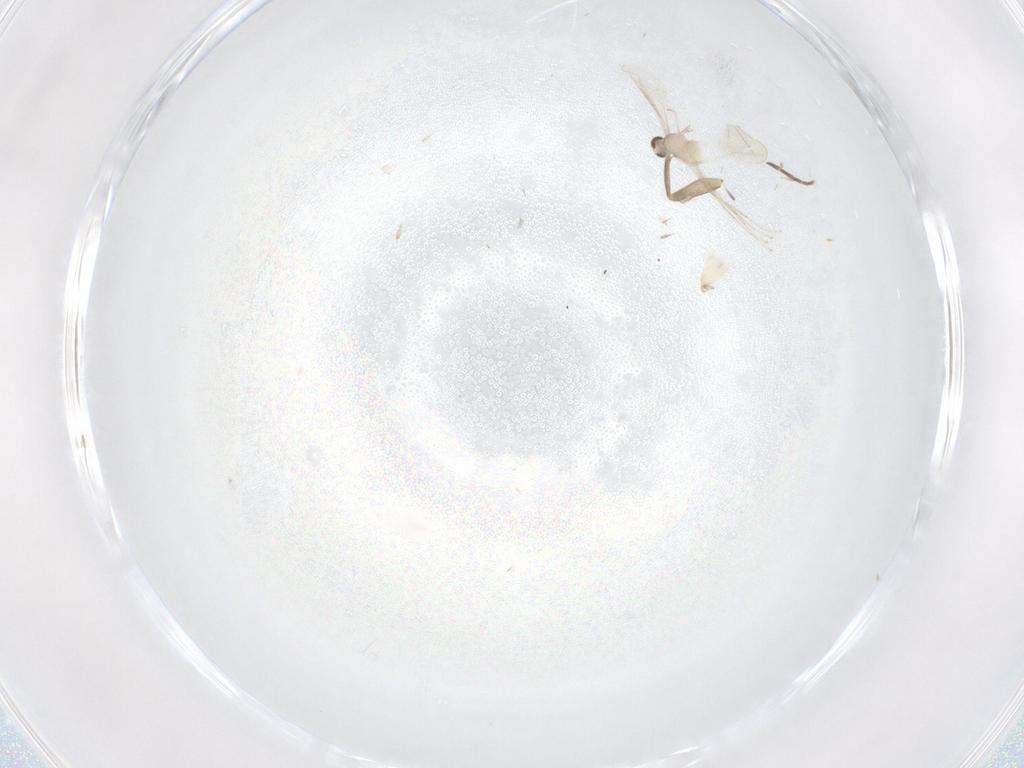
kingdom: Animalia
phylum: Arthropoda
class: Insecta
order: Diptera
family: Phoridae
